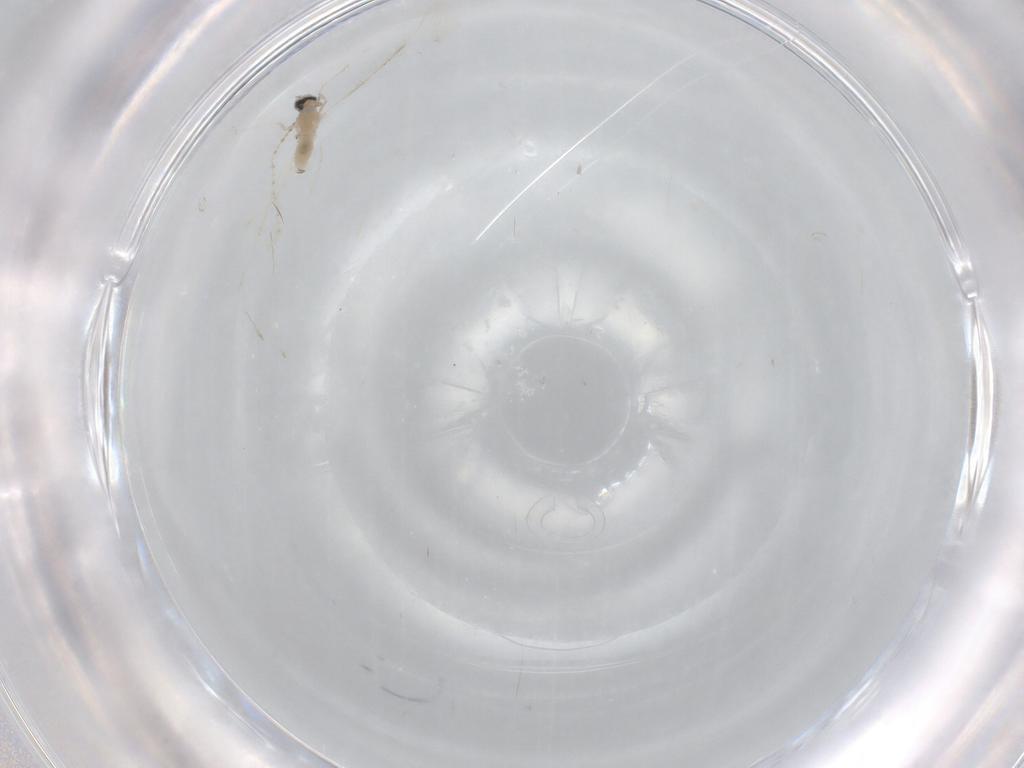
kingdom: Animalia
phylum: Arthropoda
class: Insecta
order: Diptera
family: Cecidomyiidae
